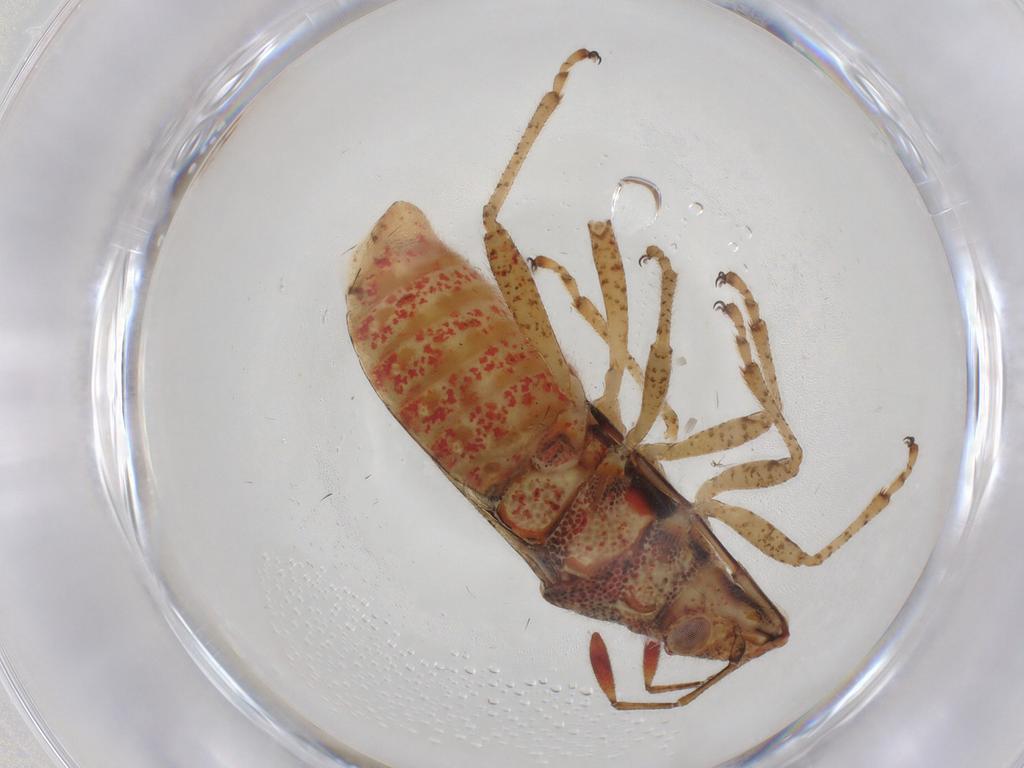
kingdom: Animalia
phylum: Arthropoda
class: Insecta
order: Hemiptera
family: Rhopalidae
